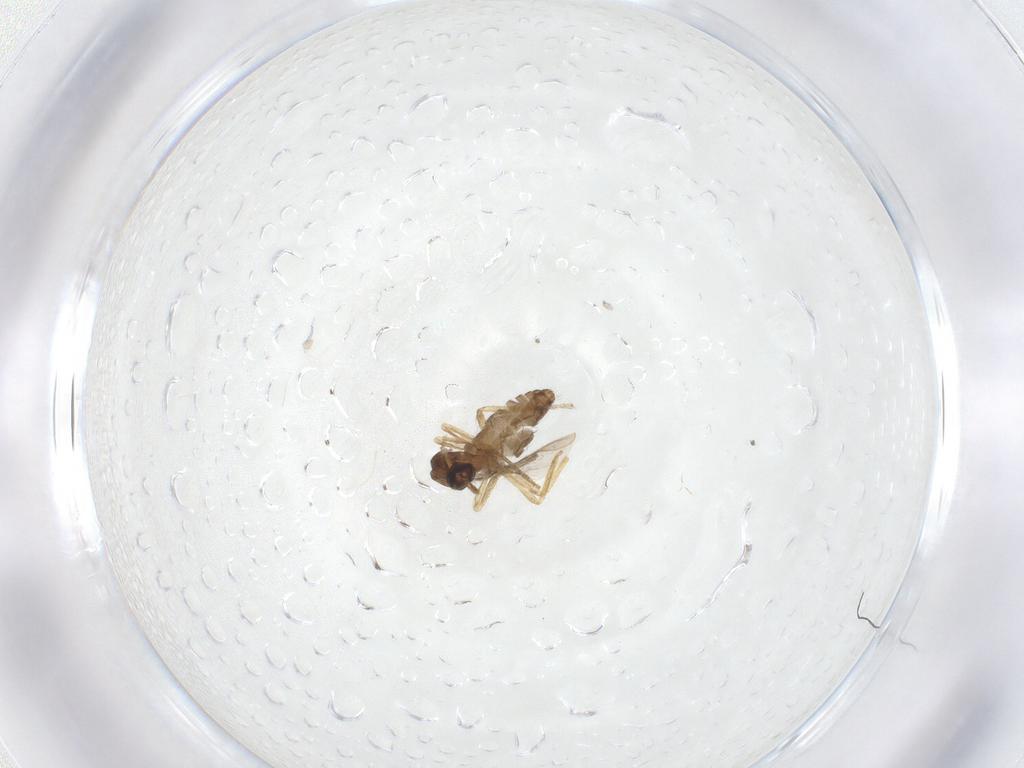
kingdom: Animalia
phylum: Arthropoda
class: Insecta
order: Diptera
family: Ceratopogonidae
